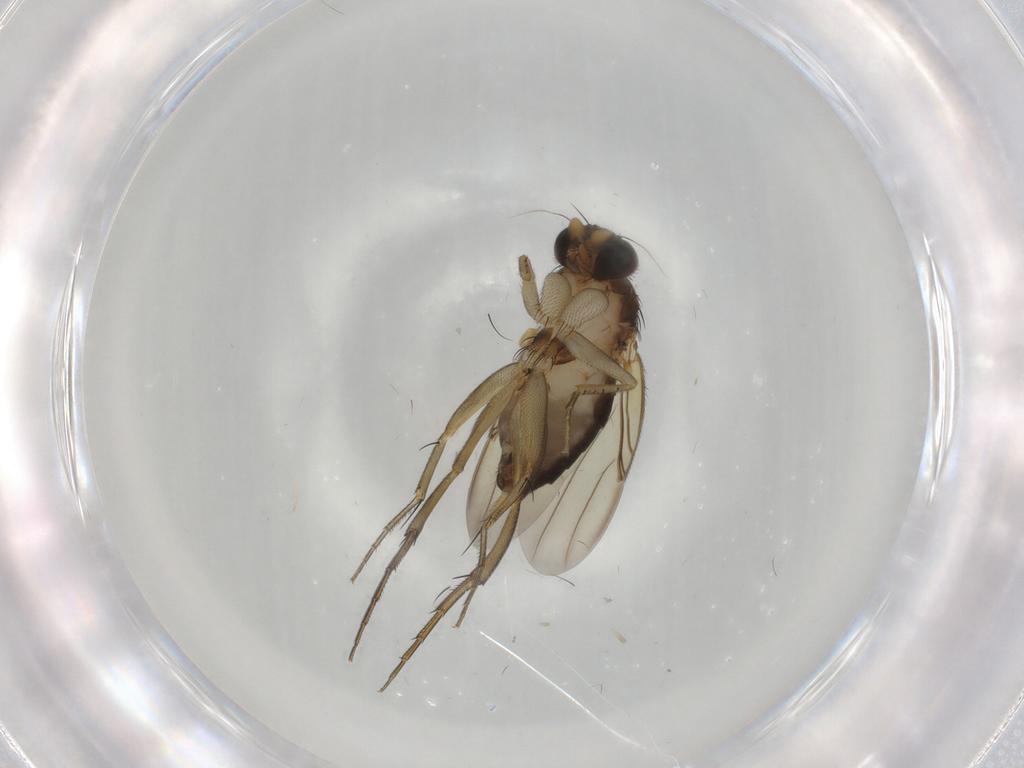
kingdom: Animalia
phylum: Arthropoda
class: Insecta
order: Diptera
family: Phoridae
